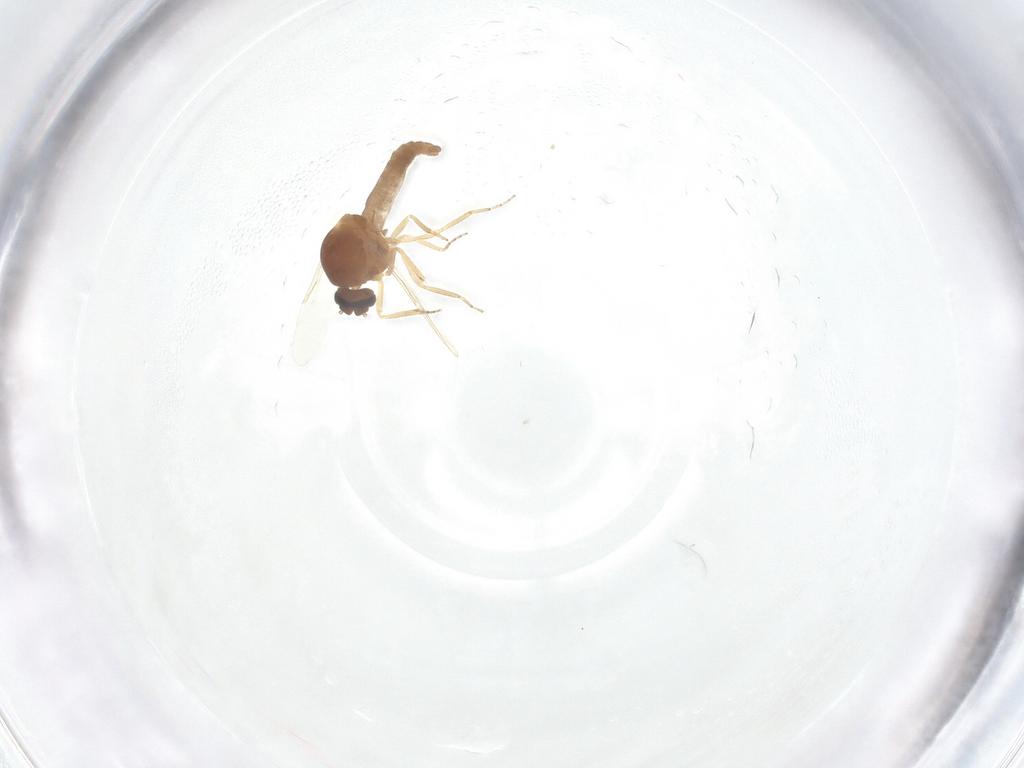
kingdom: Animalia
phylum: Arthropoda
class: Insecta
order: Diptera
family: Ceratopogonidae
